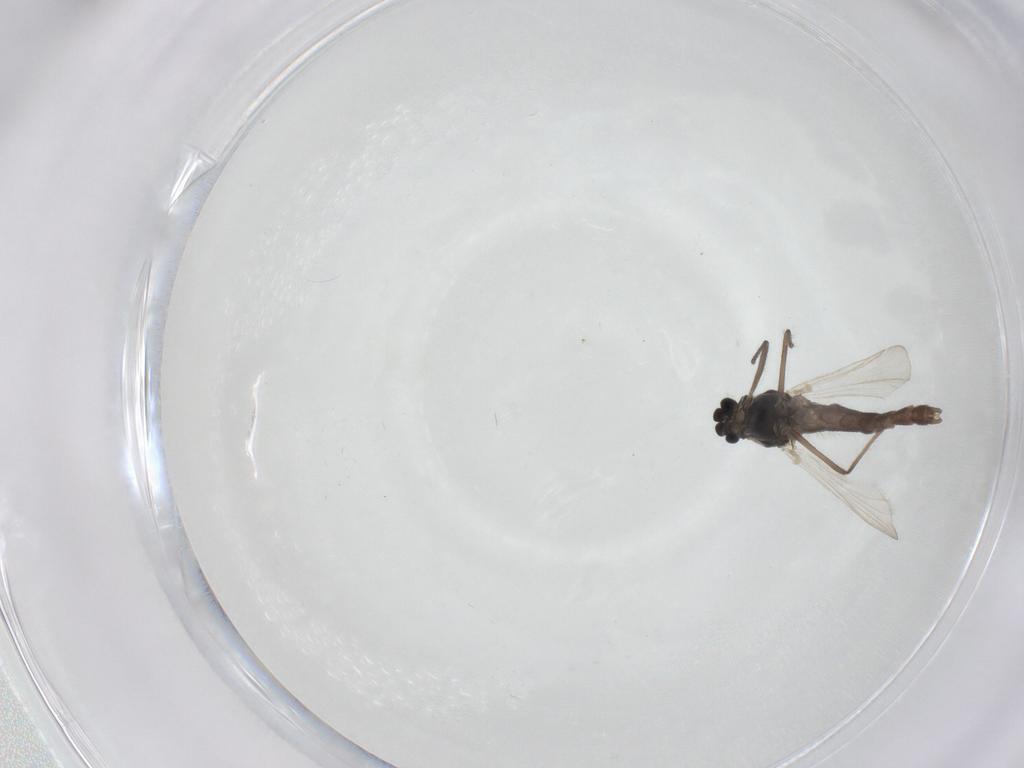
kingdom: Animalia
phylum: Arthropoda
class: Insecta
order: Diptera
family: Chironomidae
